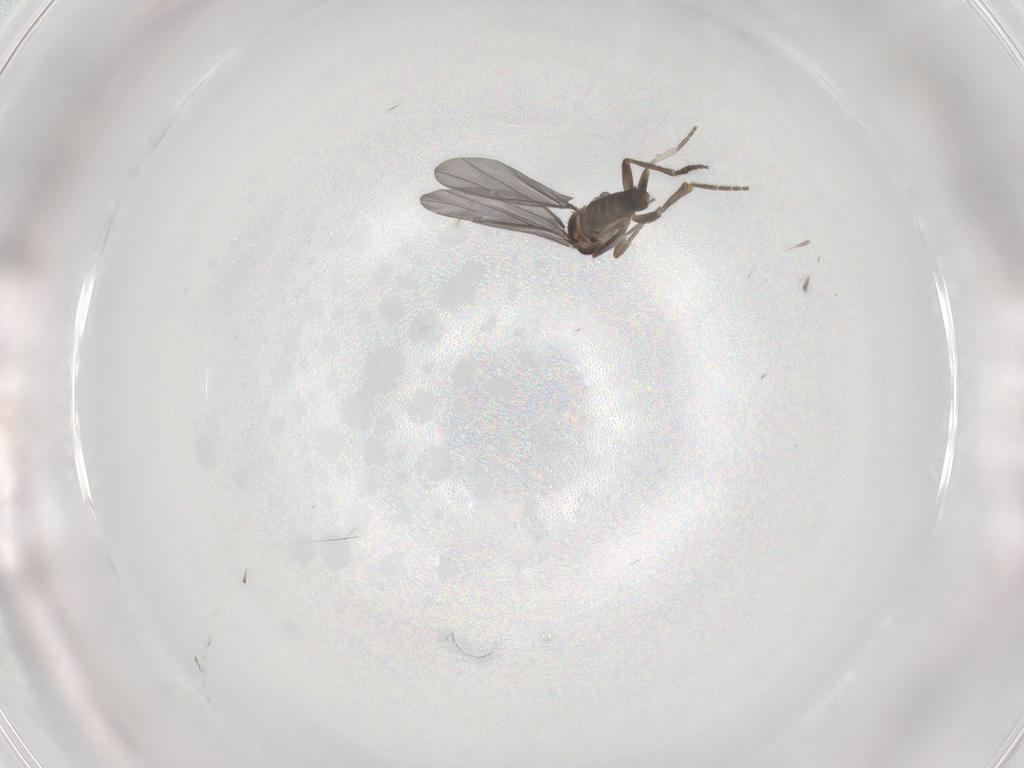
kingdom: Animalia
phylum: Arthropoda
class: Insecta
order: Diptera
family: Phoridae
